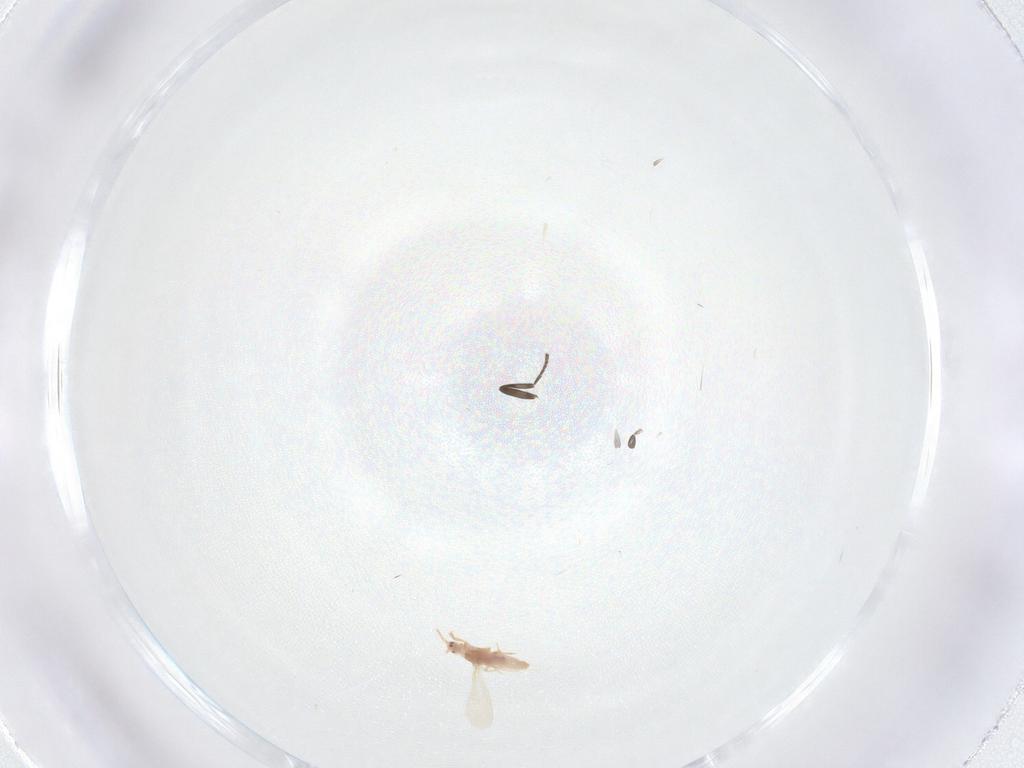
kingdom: Animalia
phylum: Arthropoda
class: Insecta
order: Diptera
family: Scatopsidae
